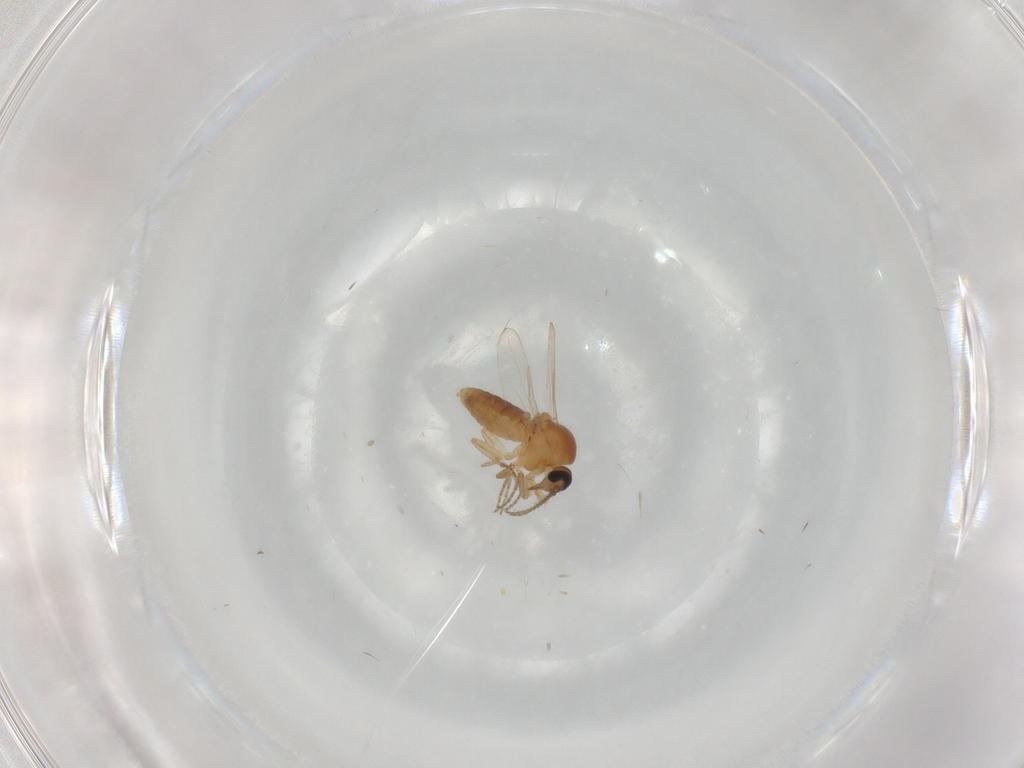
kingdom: Animalia
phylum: Arthropoda
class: Insecta
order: Diptera
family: Ceratopogonidae
